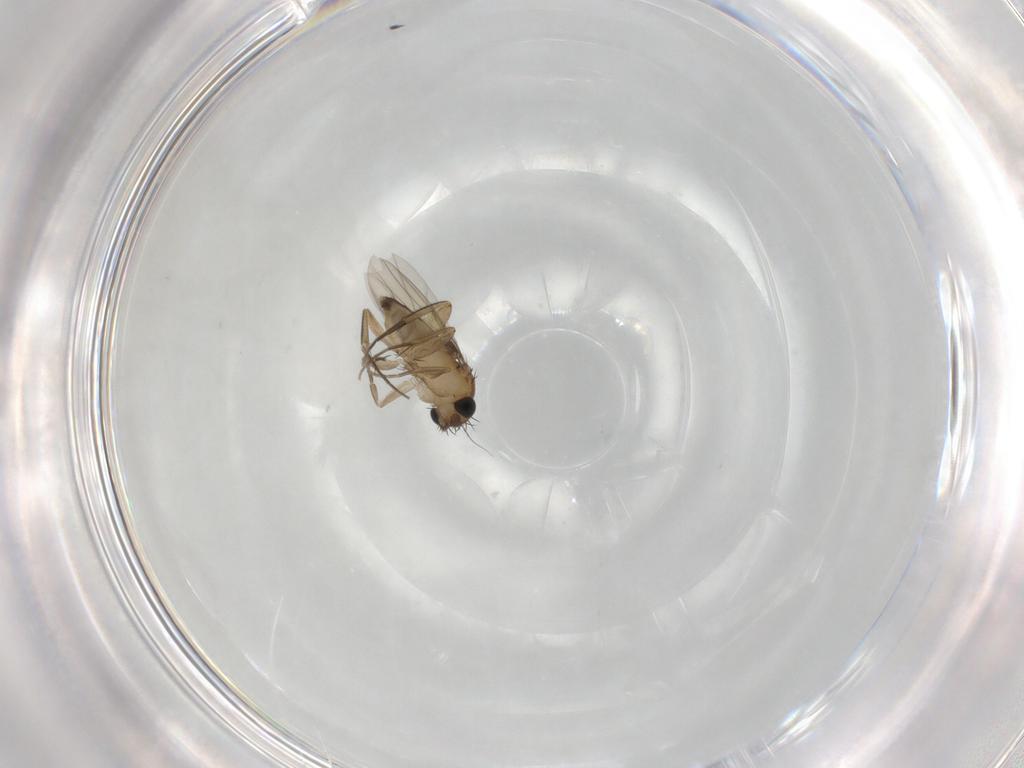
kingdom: Animalia
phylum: Arthropoda
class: Insecta
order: Diptera
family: Phoridae
